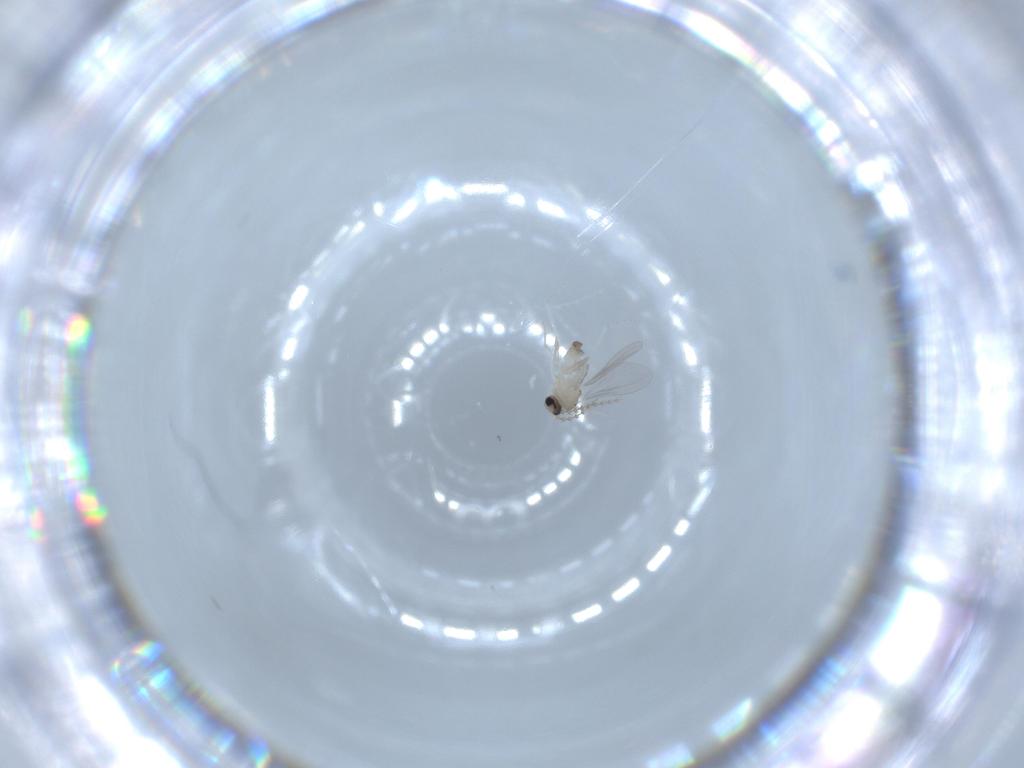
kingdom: Animalia
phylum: Arthropoda
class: Insecta
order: Diptera
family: Cecidomyiidae
